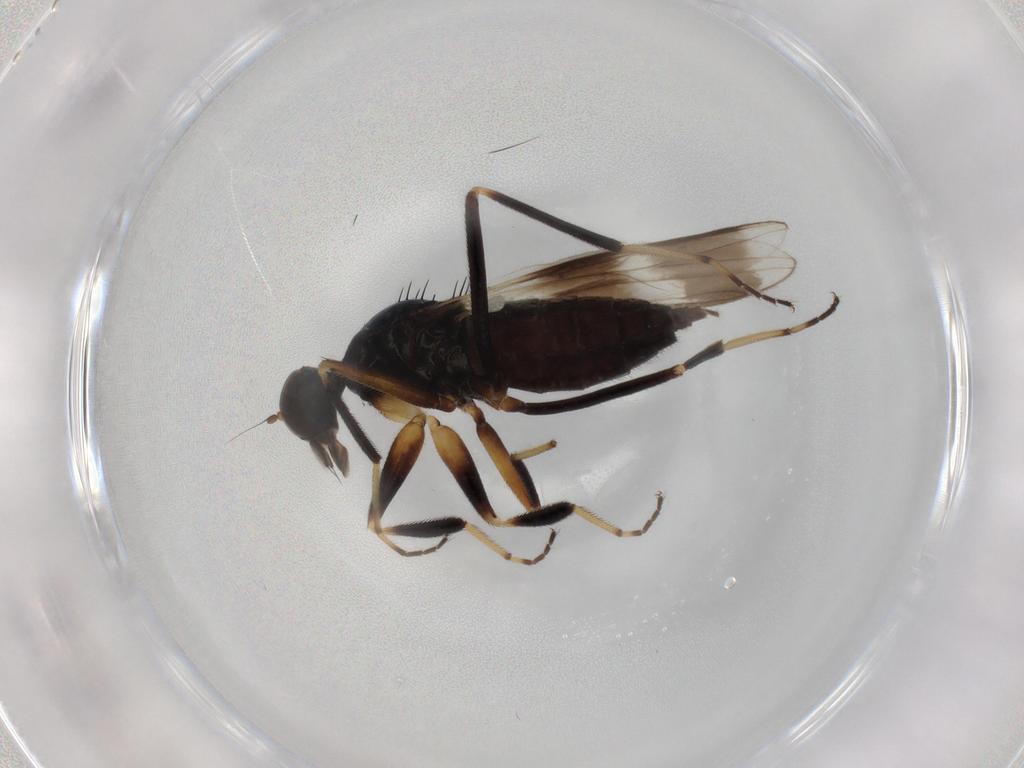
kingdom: Animalia
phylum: Arthropoda
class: Insecta
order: Diptera
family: Hybotidae
